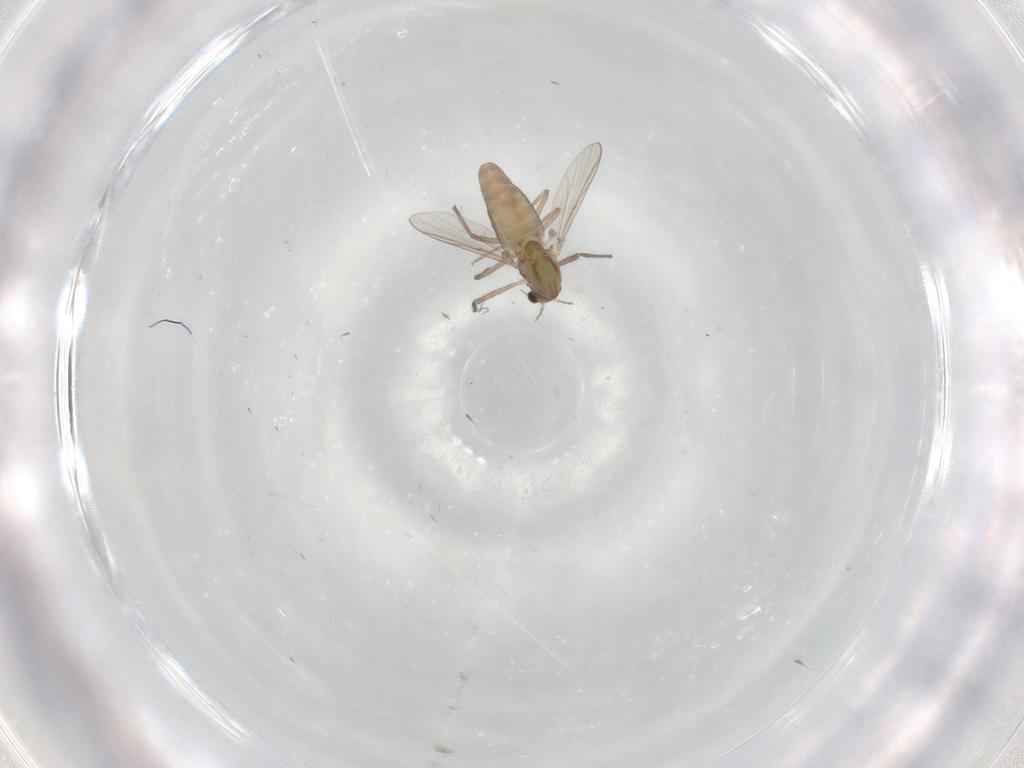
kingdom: Animalia
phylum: Arthropoda
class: Insecta
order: Diptera
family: Chironomidae
